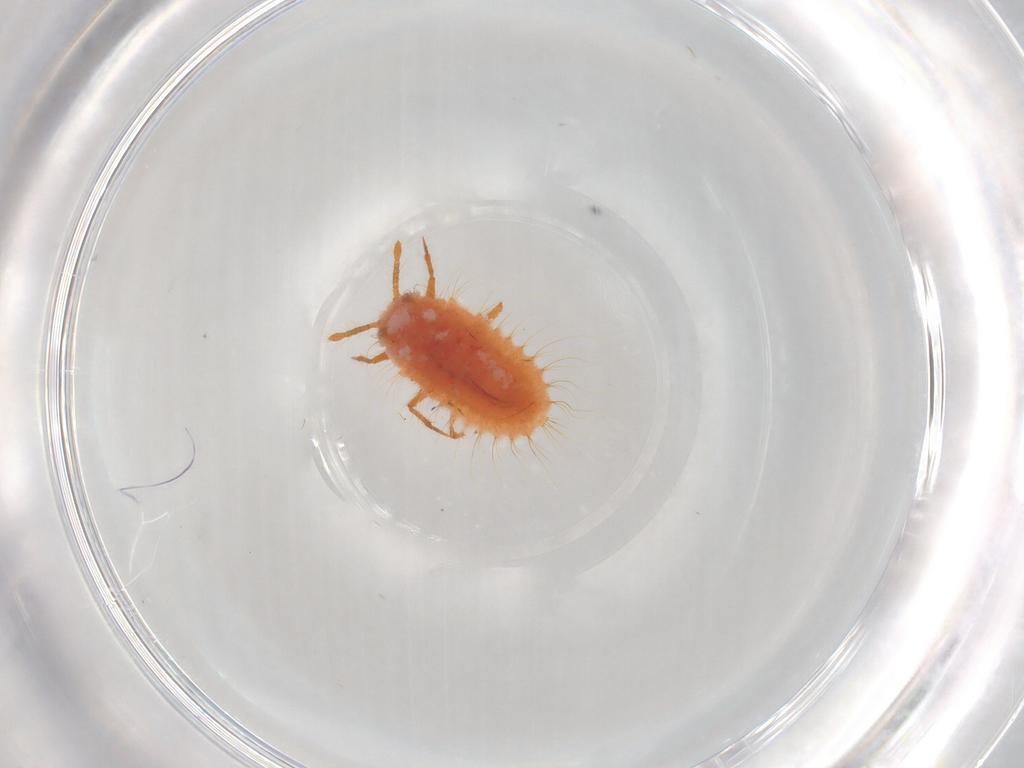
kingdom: Animalia
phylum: Arthropoda
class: Insecta
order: Hemiptera
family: Coccoidea_incertae_sedis
